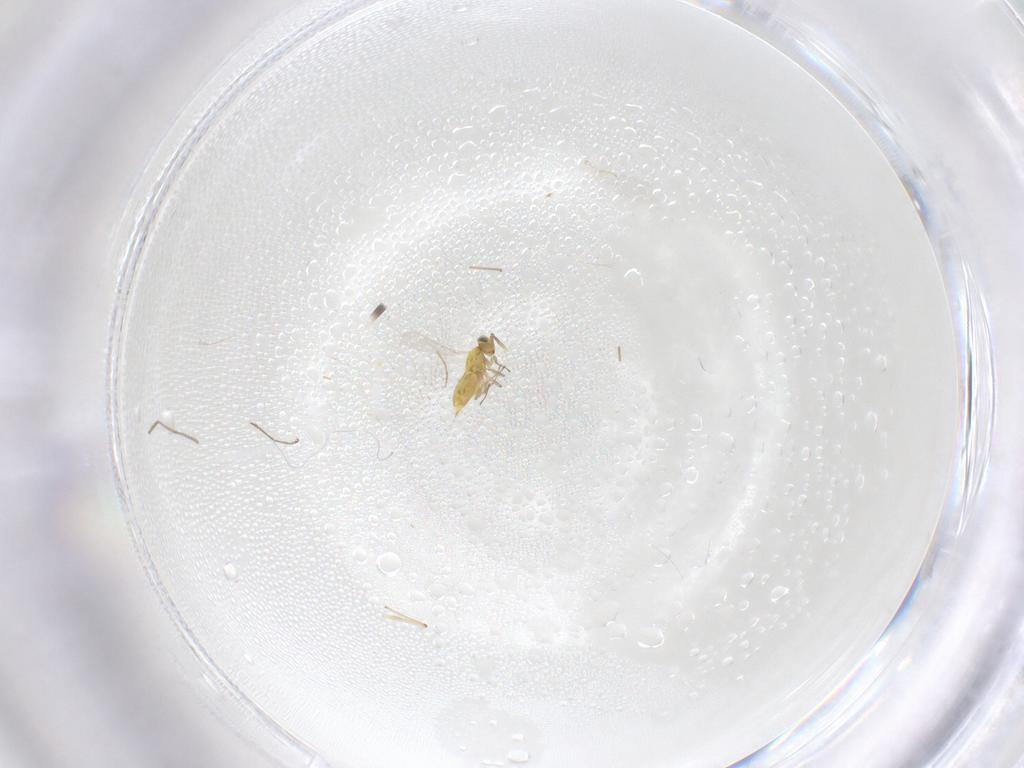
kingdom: Animalia
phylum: Arthropoda
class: Insecta
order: Hymenoptera
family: Aphelinidae
